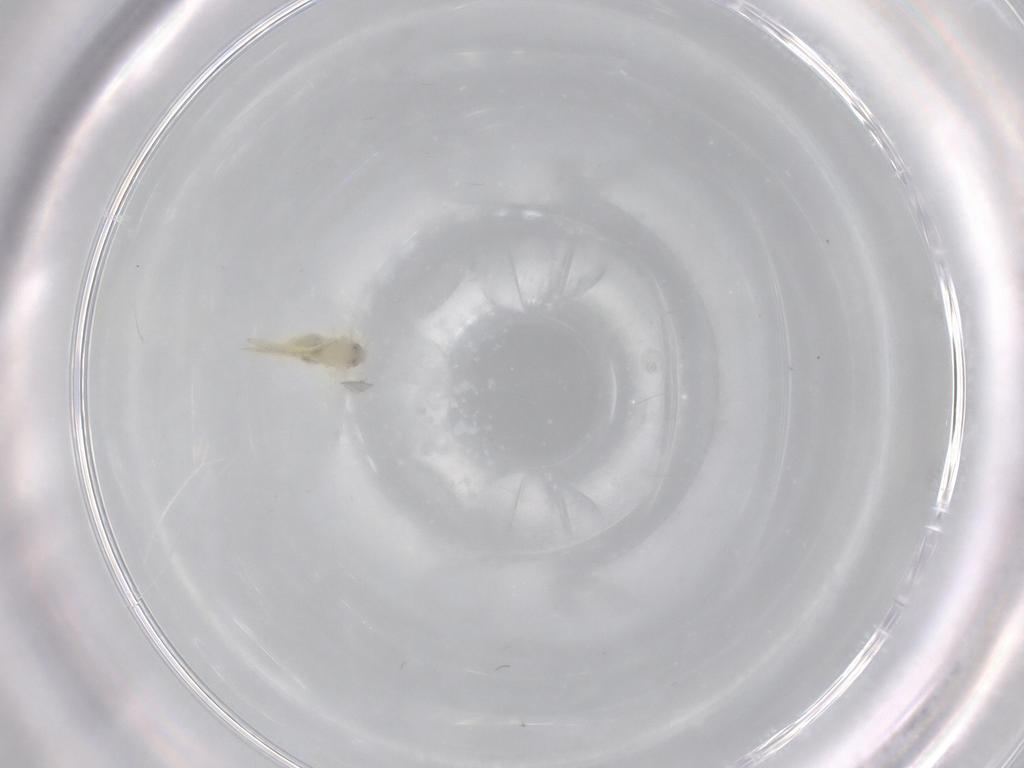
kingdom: Animalia
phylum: Arthropoda
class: Insecta
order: Hemiptera
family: Aleyrodidae
